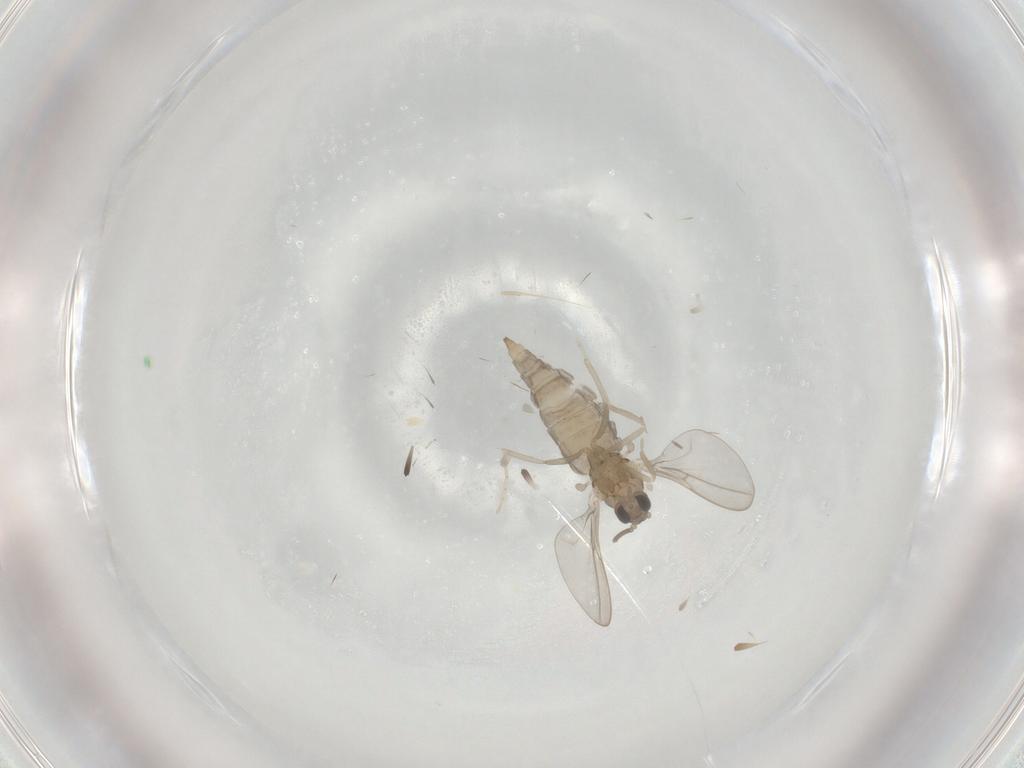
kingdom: Animalia
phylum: Arthropoda
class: Insecta
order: Diptera
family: Cecidomyiidae
